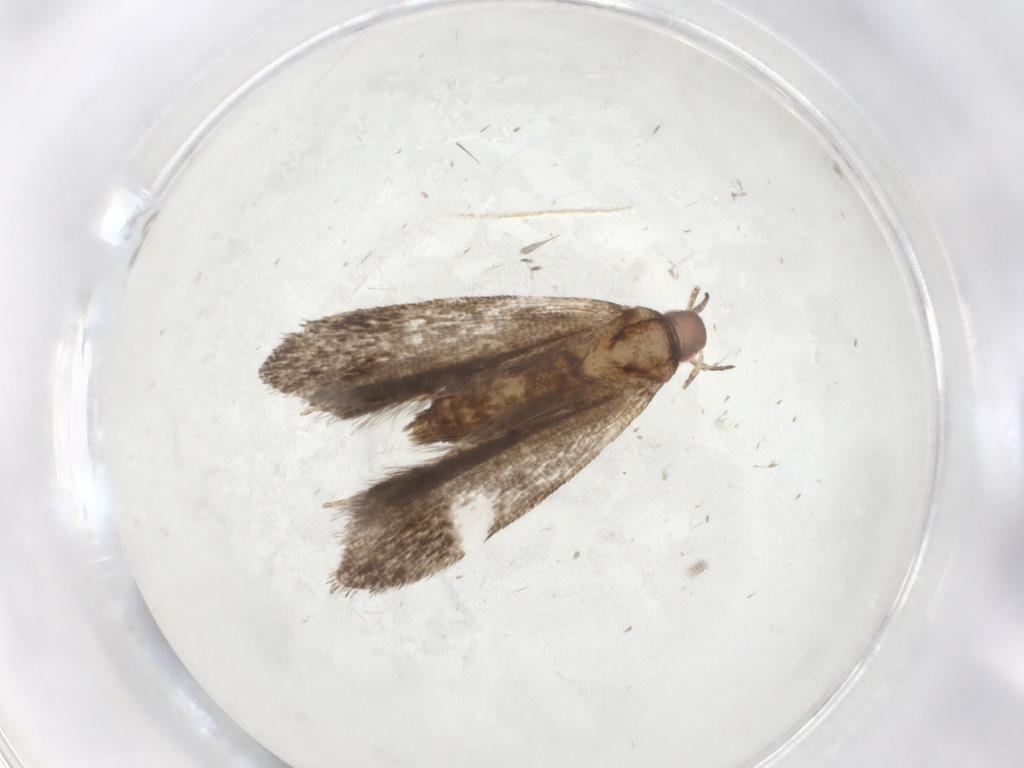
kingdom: Animalia
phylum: Arthropoda
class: Insecta
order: Lepidoptera
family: Gelechiidae
